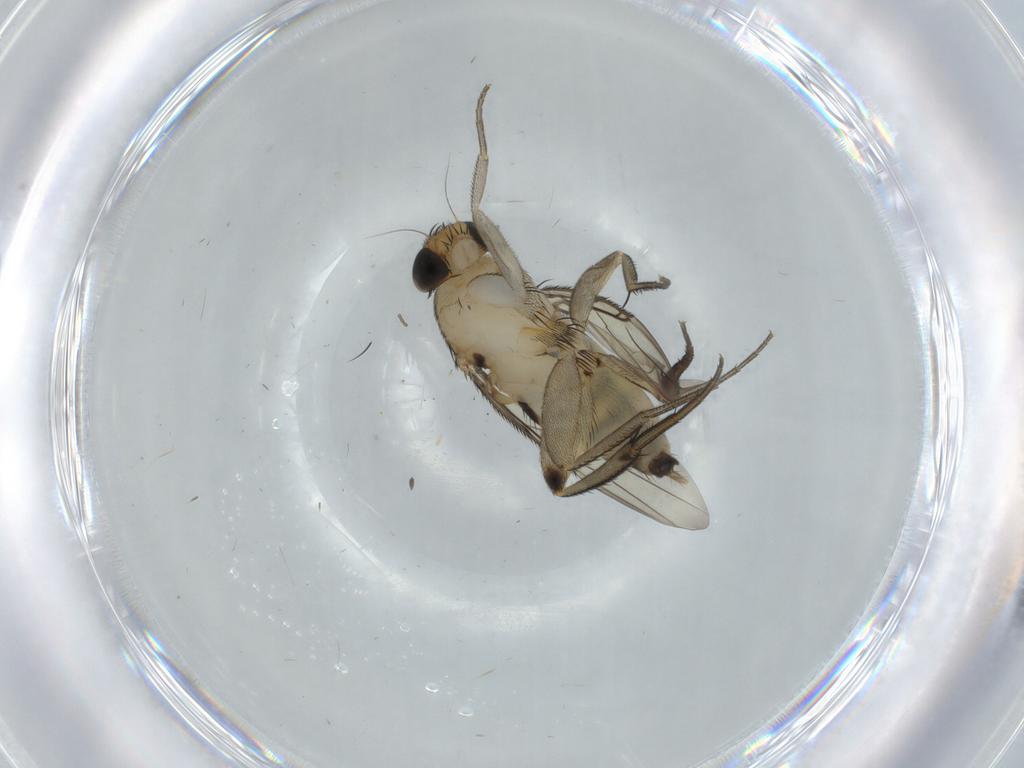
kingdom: Animalia
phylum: Arthropoda
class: Insecta
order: Diptera
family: Phoridae
